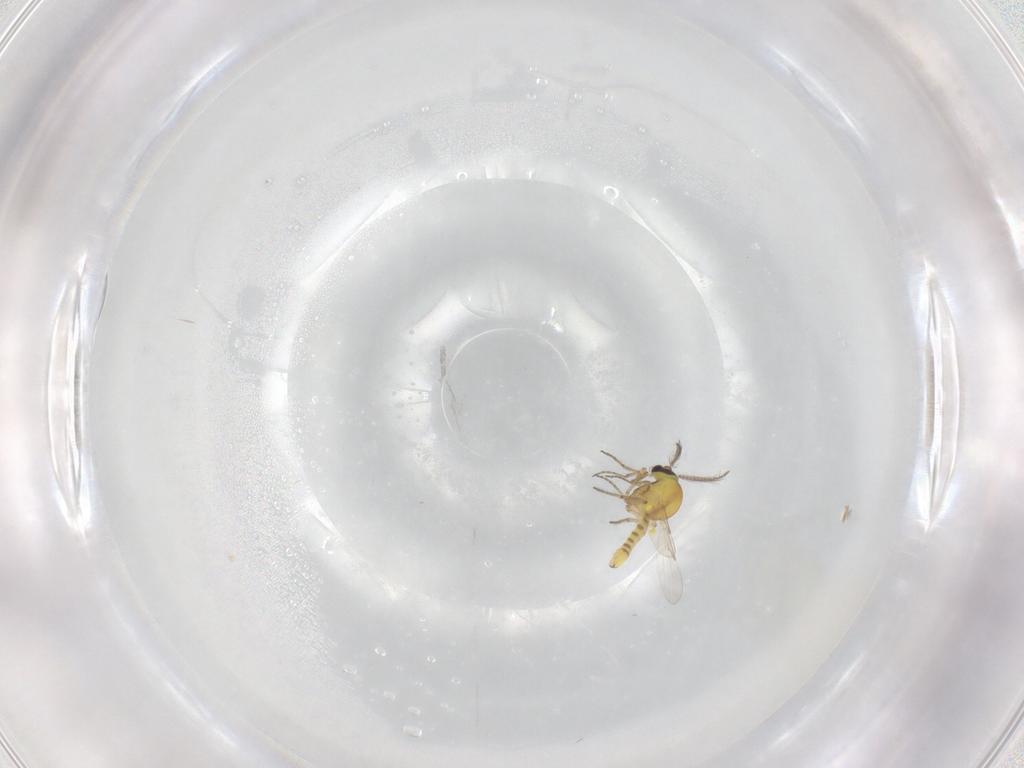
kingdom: Animalia
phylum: Arthropoda
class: Insecta
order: Diptera
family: Ceratopogonidae
